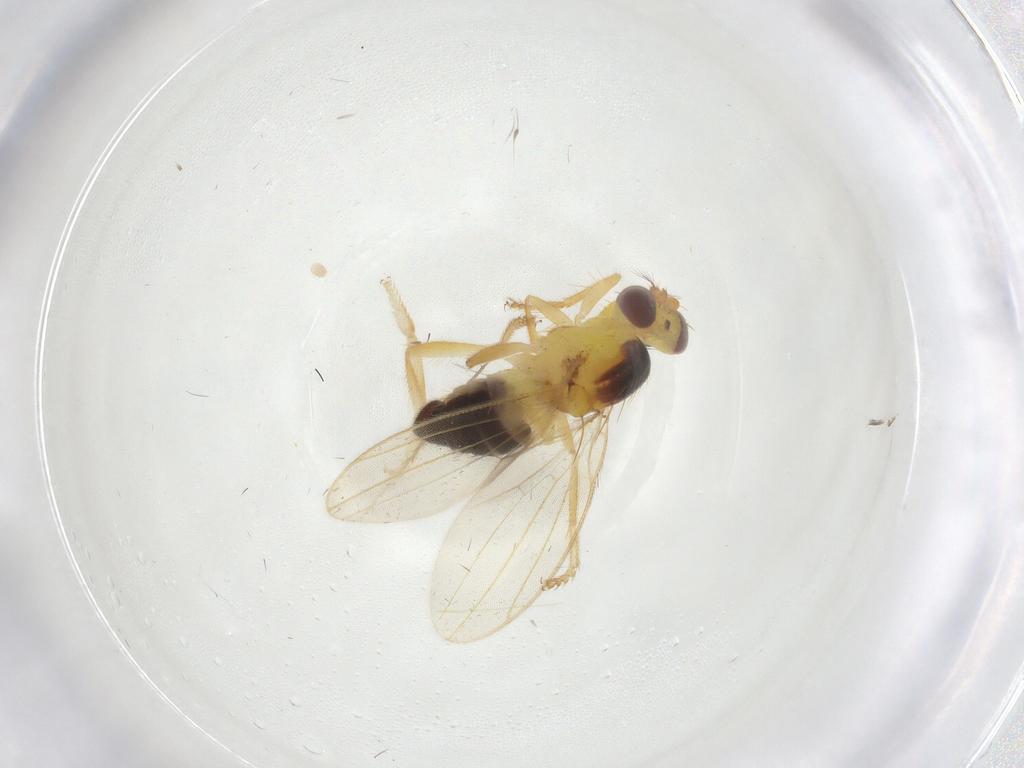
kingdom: Animalia
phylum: Arthropoda
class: Insecta
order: Diptera
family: Periscelididae
